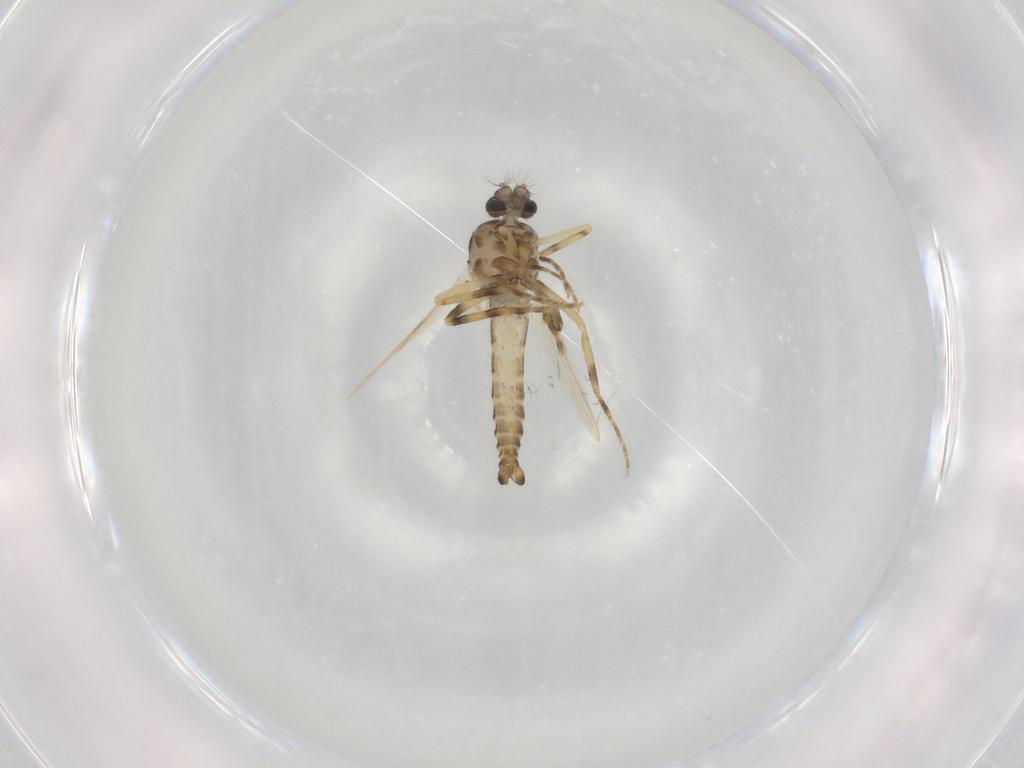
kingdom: Animalia
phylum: Arthropoda
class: Insecta
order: Diptera
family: Ceratopogonidae
